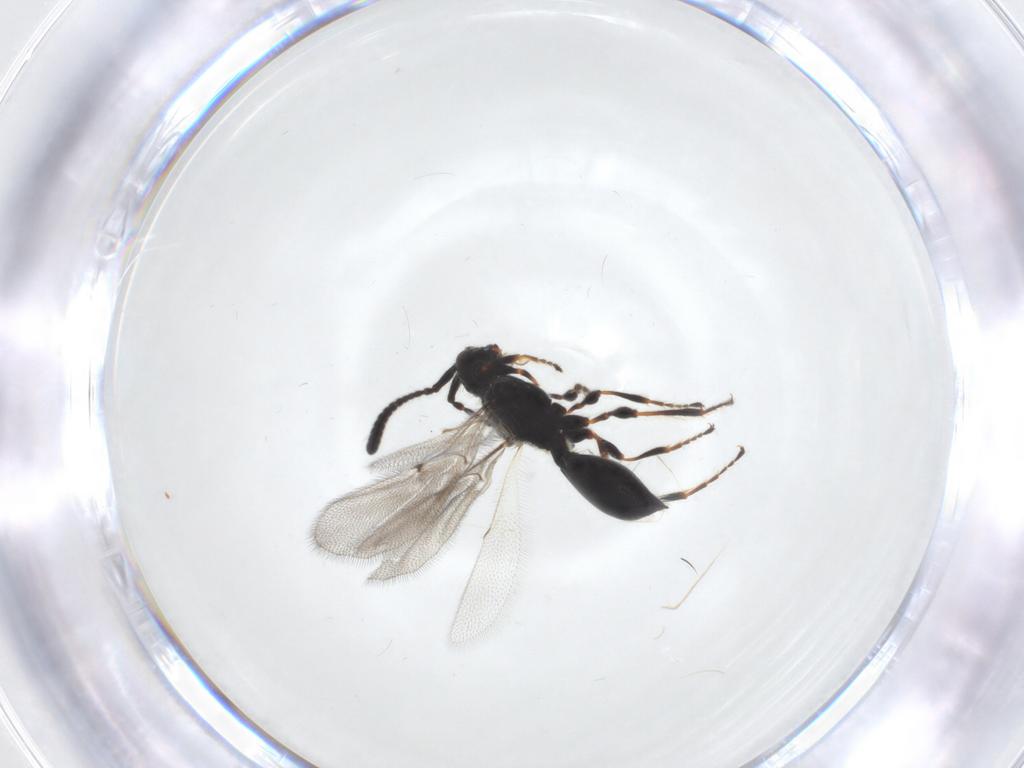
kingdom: Animalia
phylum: Arthropoda
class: Insecta
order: Hymenoptera
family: Diapriidae
